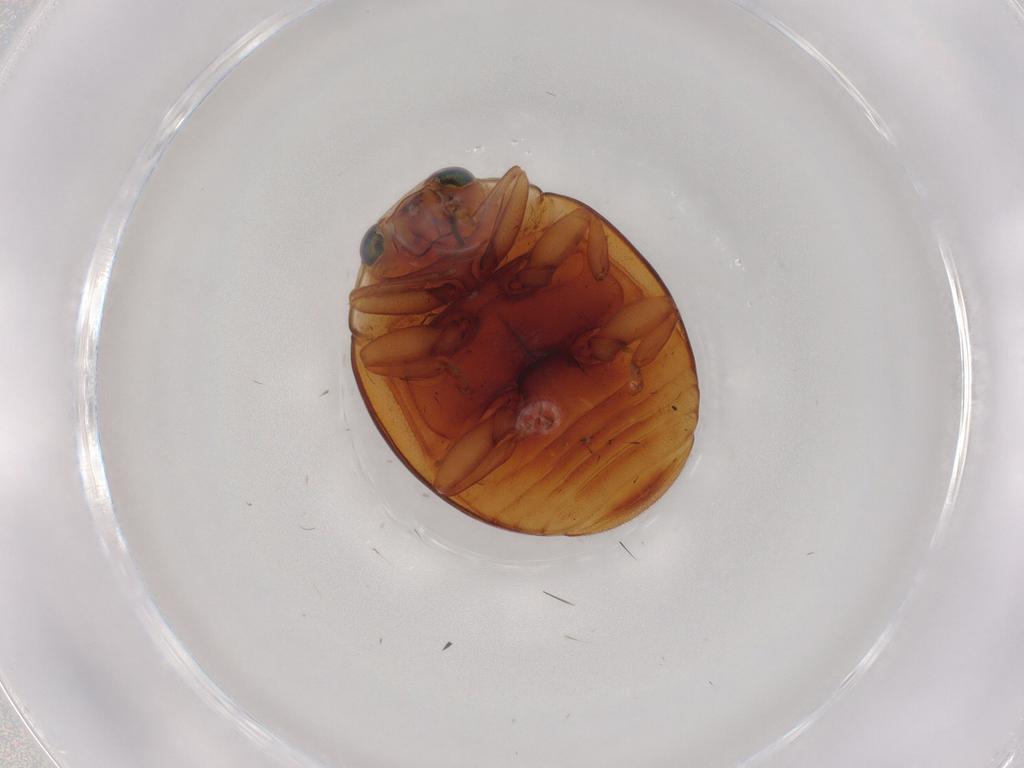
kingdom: Animalia
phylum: Arthropoda
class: Insecta
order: Coleoptera
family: Coccinellidae
